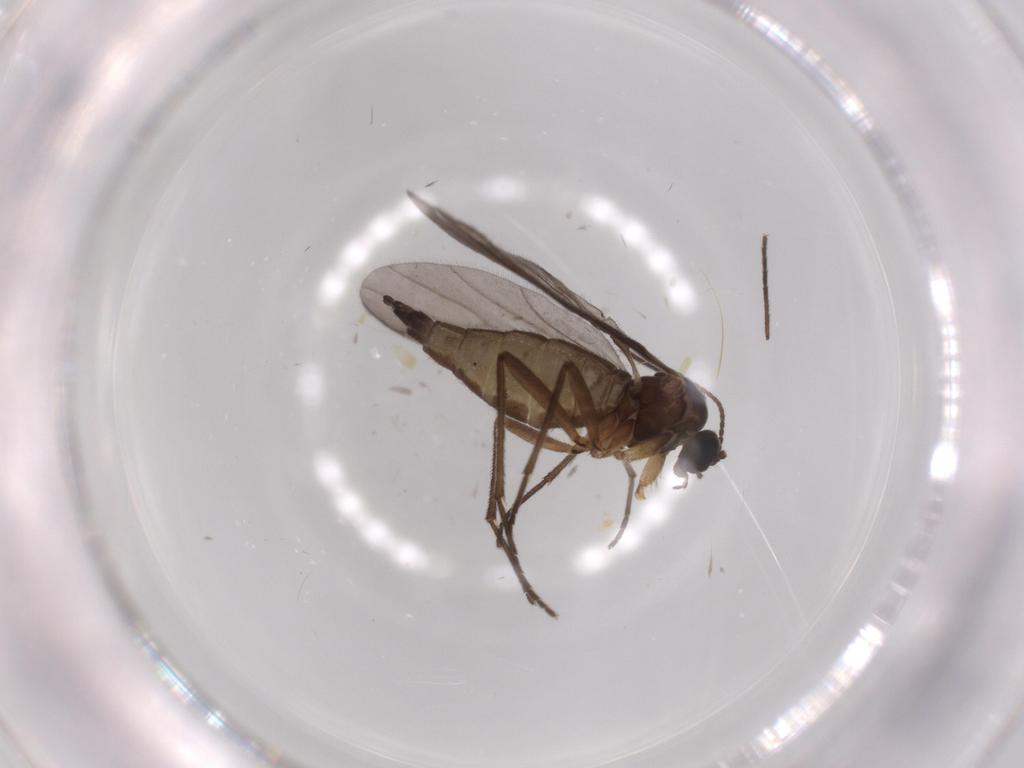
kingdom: Animalia
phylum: Arthropoda
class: Insecta
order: Diptera
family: Sciaridae
